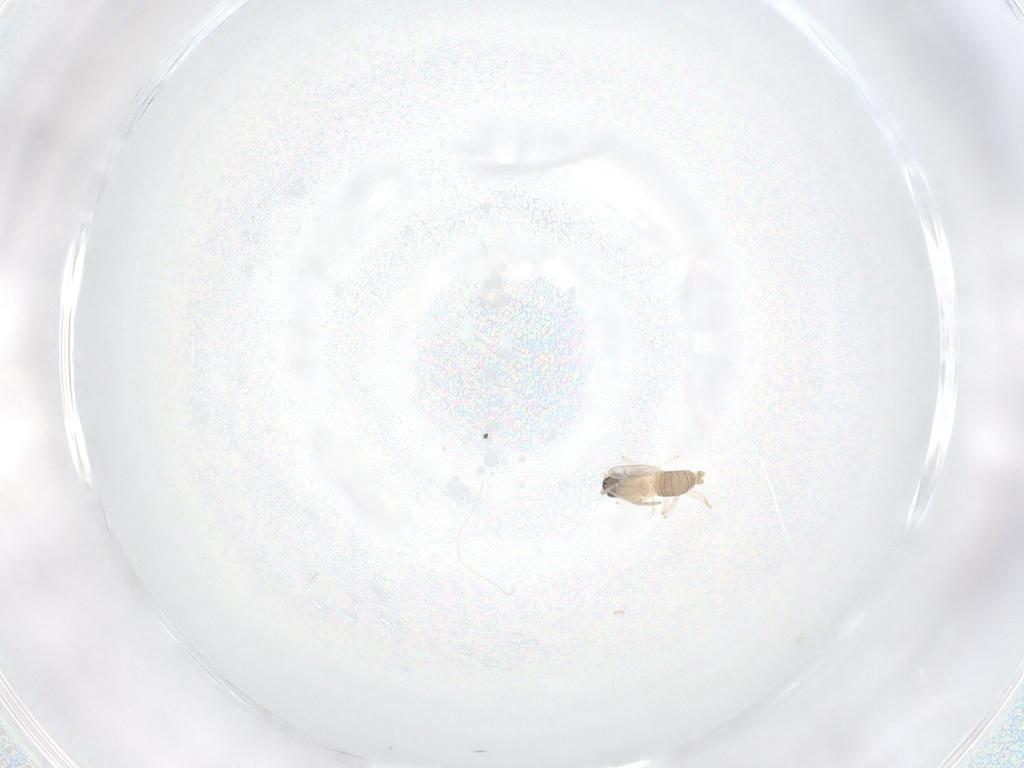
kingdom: Animalia
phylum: Arthropoda
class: Insecta
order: Diptera
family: Cecidomyiidae
